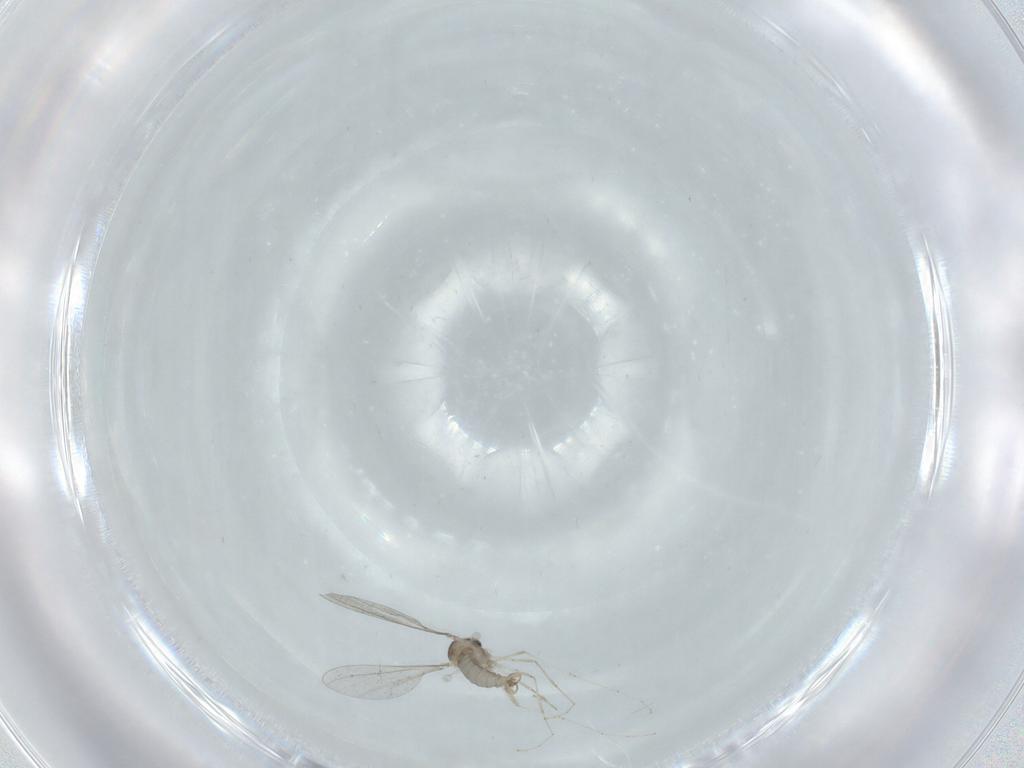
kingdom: Animalia
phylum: Arthropoda
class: Insecta
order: Diptera
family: Cecidomyiidae
